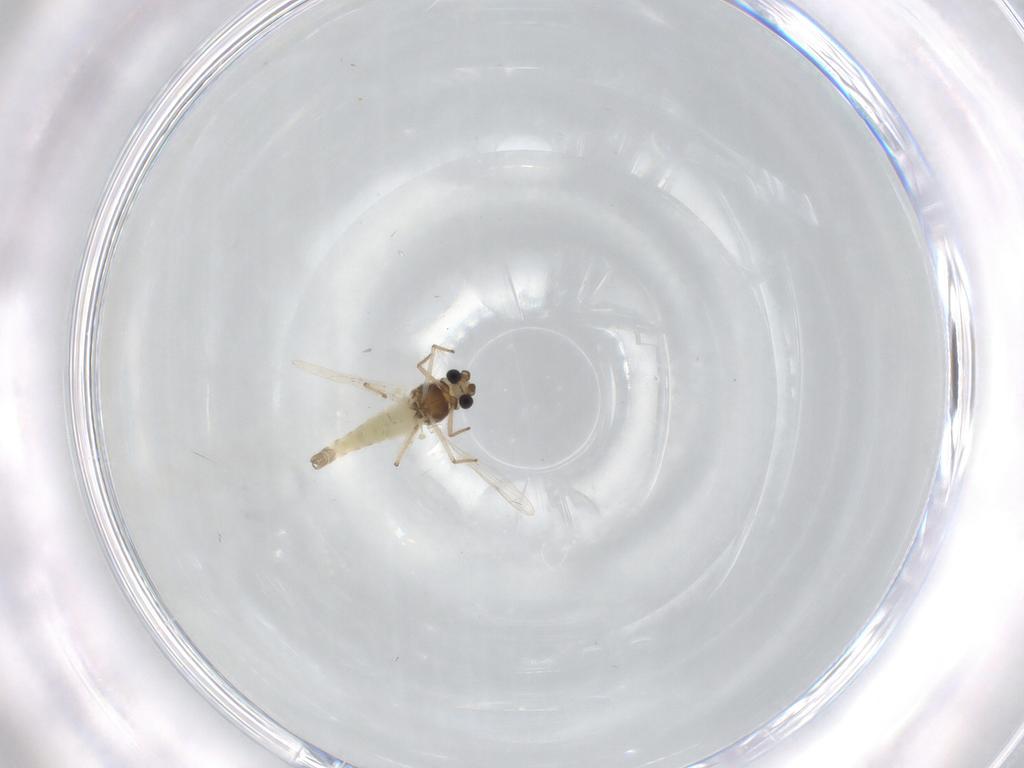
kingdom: Animalia
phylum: Arthropoda
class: Insecta
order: Diptera
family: Chironomidae
